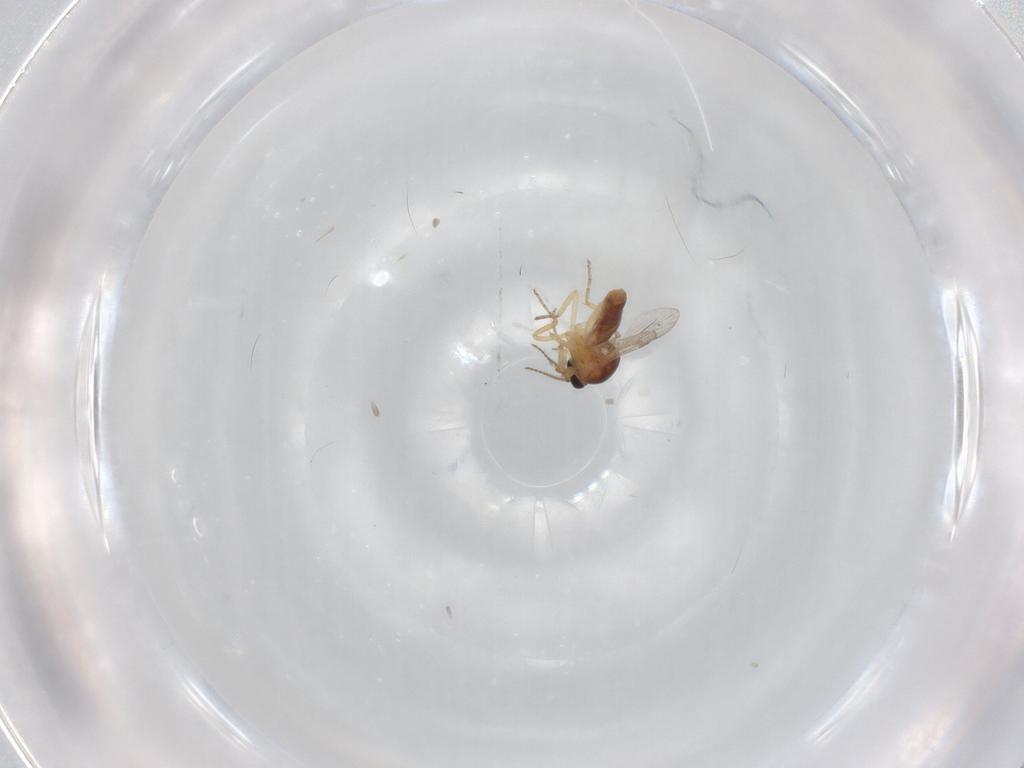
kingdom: Animalia
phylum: Arthropoda
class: Insecta
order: Diptera
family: Ceratopogonidae
